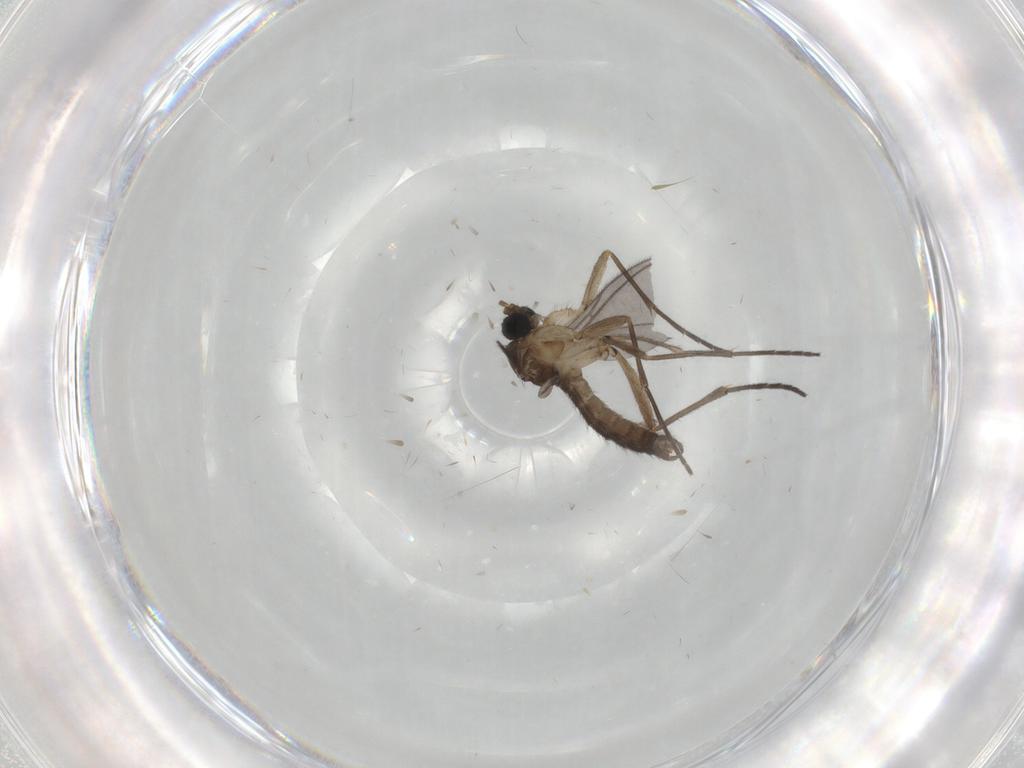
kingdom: Animalia
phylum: Arthropoda
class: Insecta
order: Diptera
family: Sciaridae
